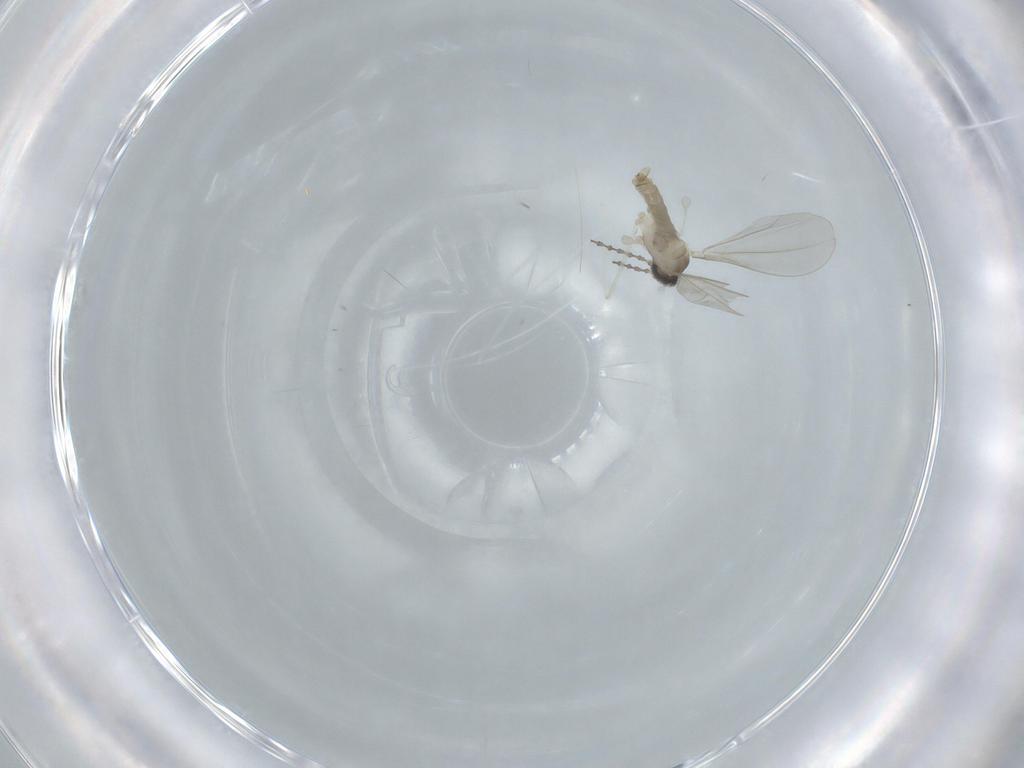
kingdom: Animalia
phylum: Arthropoda
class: Insecta
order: Diptera
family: Cecidomyiidae
